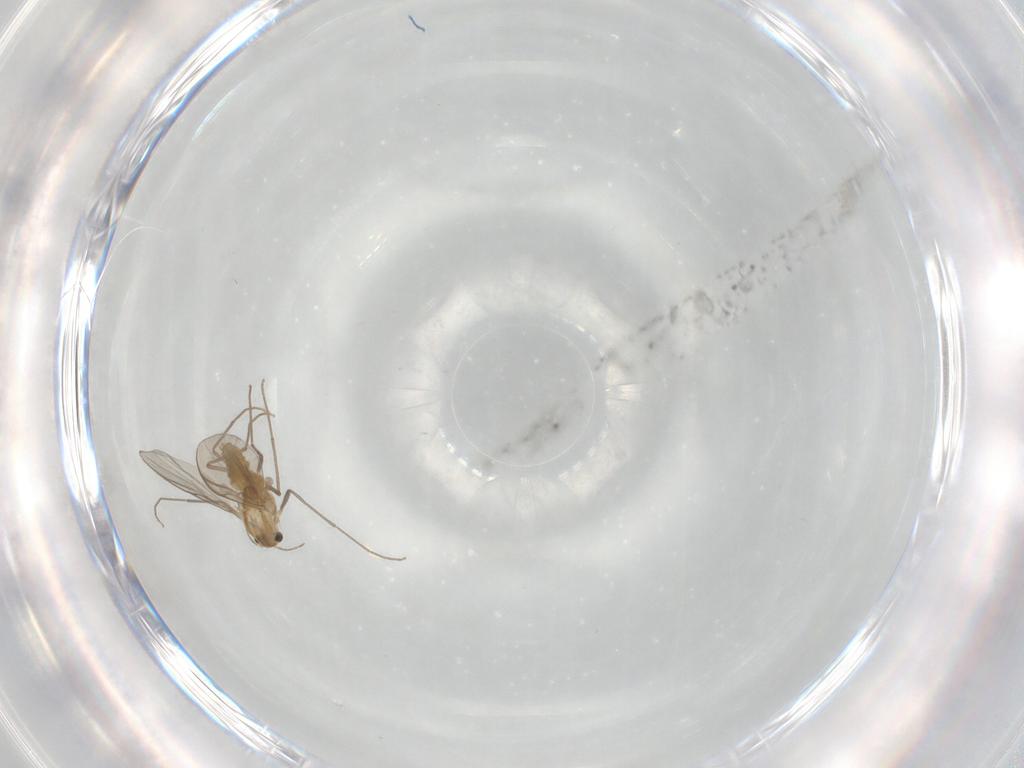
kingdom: Animalia
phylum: Arthropoda
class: Insecta
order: Diptera
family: Chironomidae
